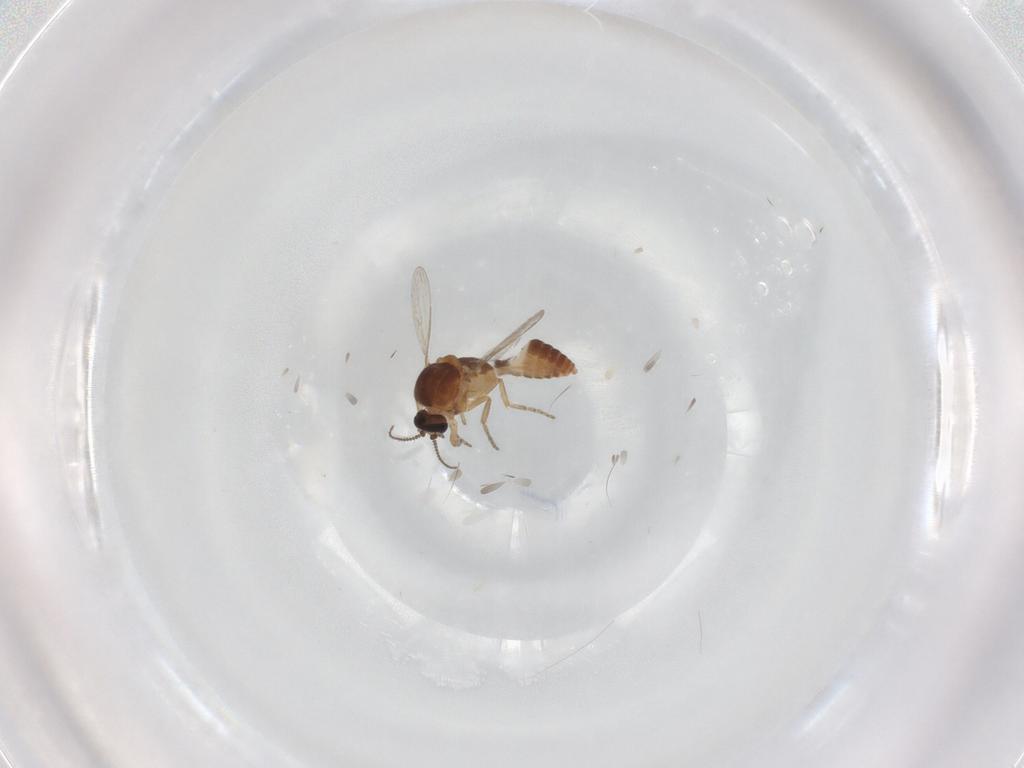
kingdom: Animalia
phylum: Arthropoda
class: Insecta
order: Diptera
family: Ceratopogonidae
